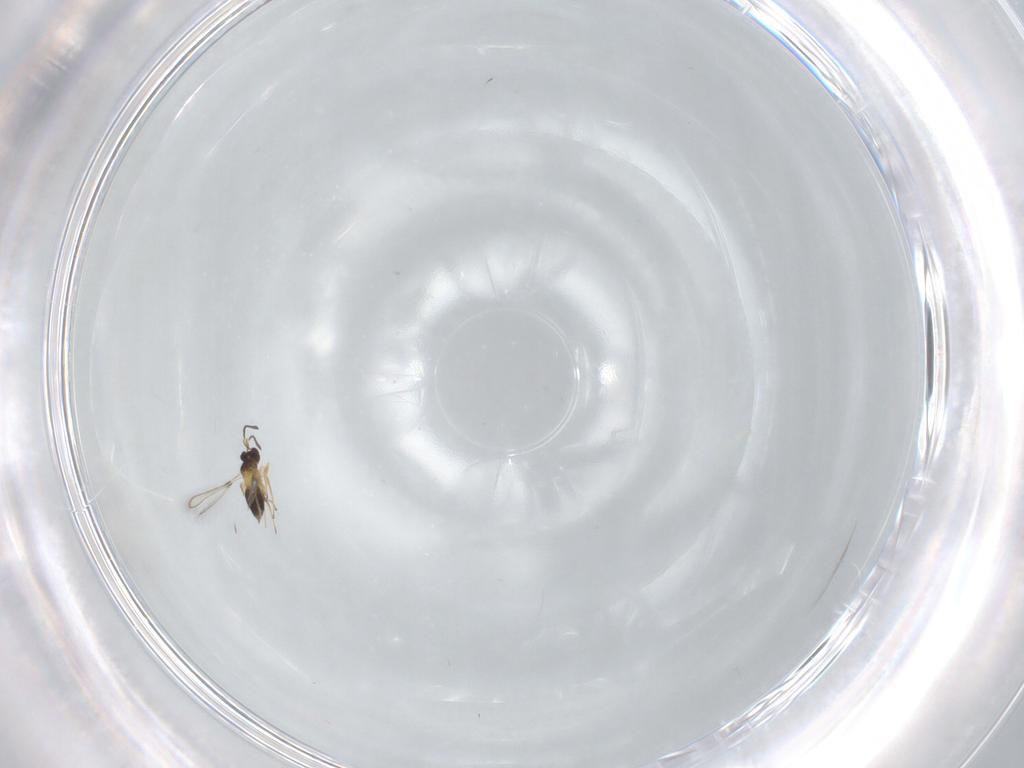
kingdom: Animalia
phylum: Arthropoda
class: Insecta
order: Hymenoptera
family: Mymaridae
